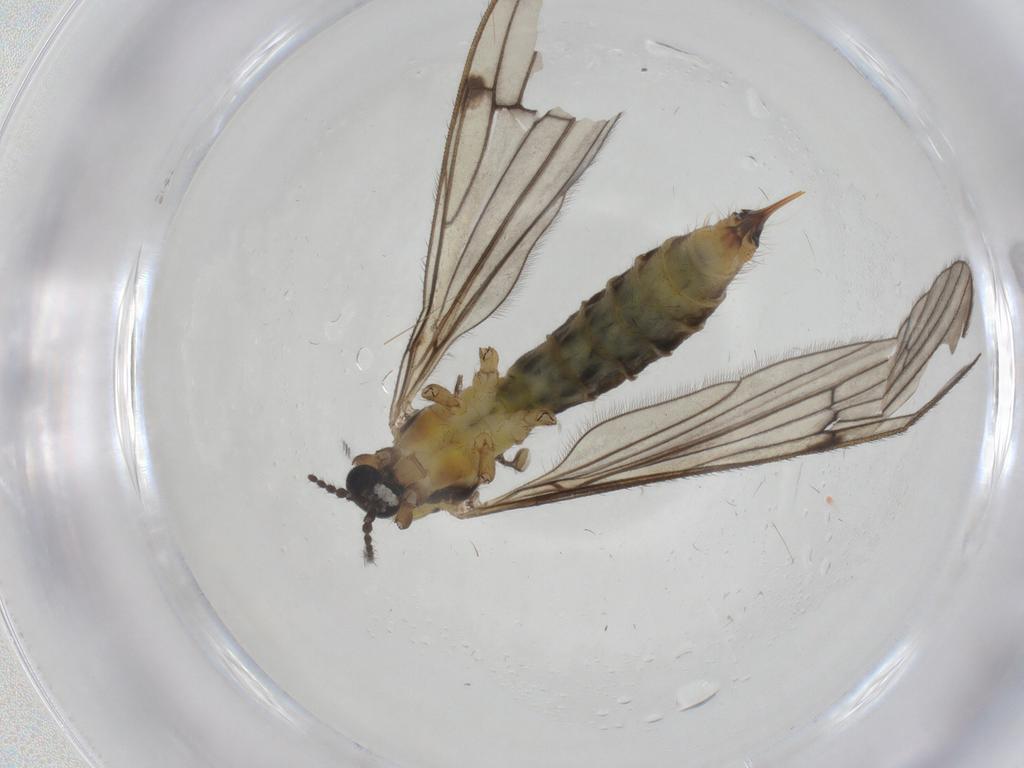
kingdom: Animalia
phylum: Arthropoda
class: Insecta
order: Diptera
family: Limoniidae
